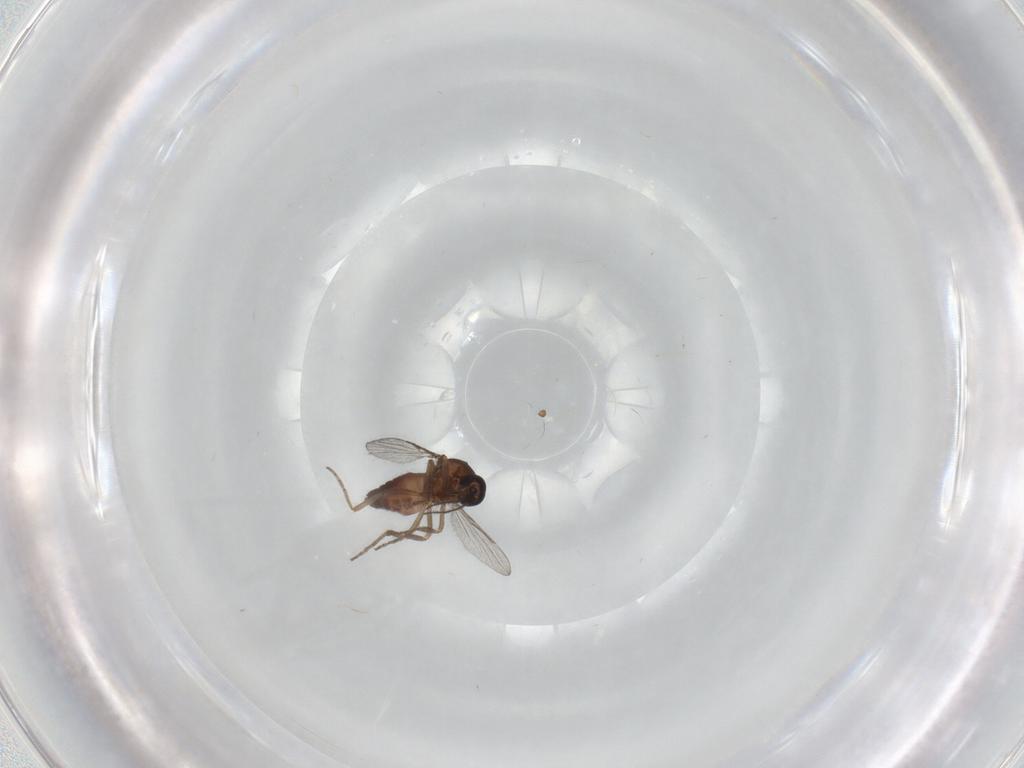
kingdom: Animalia
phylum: Arthropoda
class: Insecta
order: Diptera
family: Ceratopogonidae
